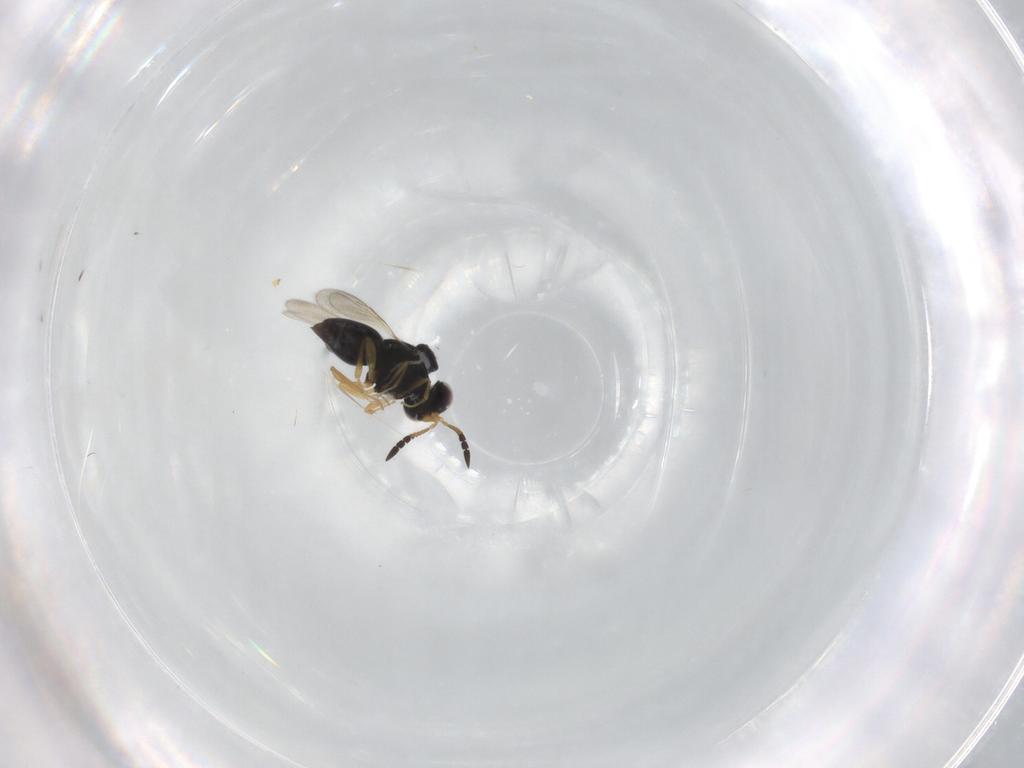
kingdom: Animalia
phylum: Arthropoda
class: Insecta
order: Hymenoptera
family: Ceraphronidae
